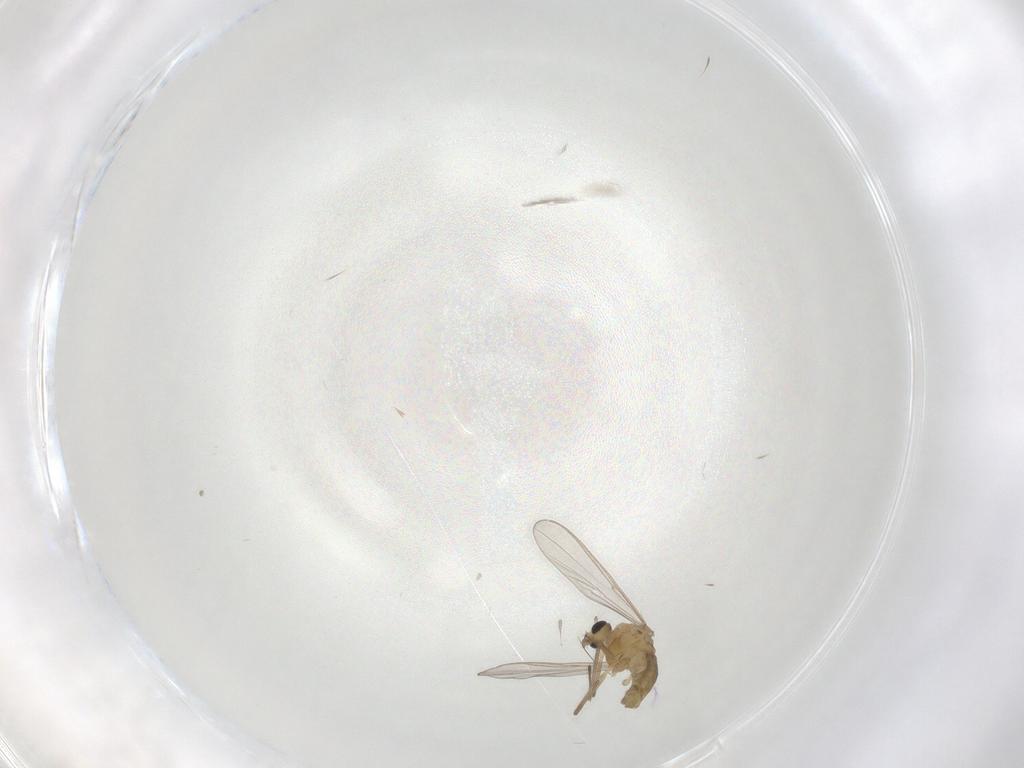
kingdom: Animalia
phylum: Arthropoda
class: Insecta
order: Diptera
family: Chironomidae
